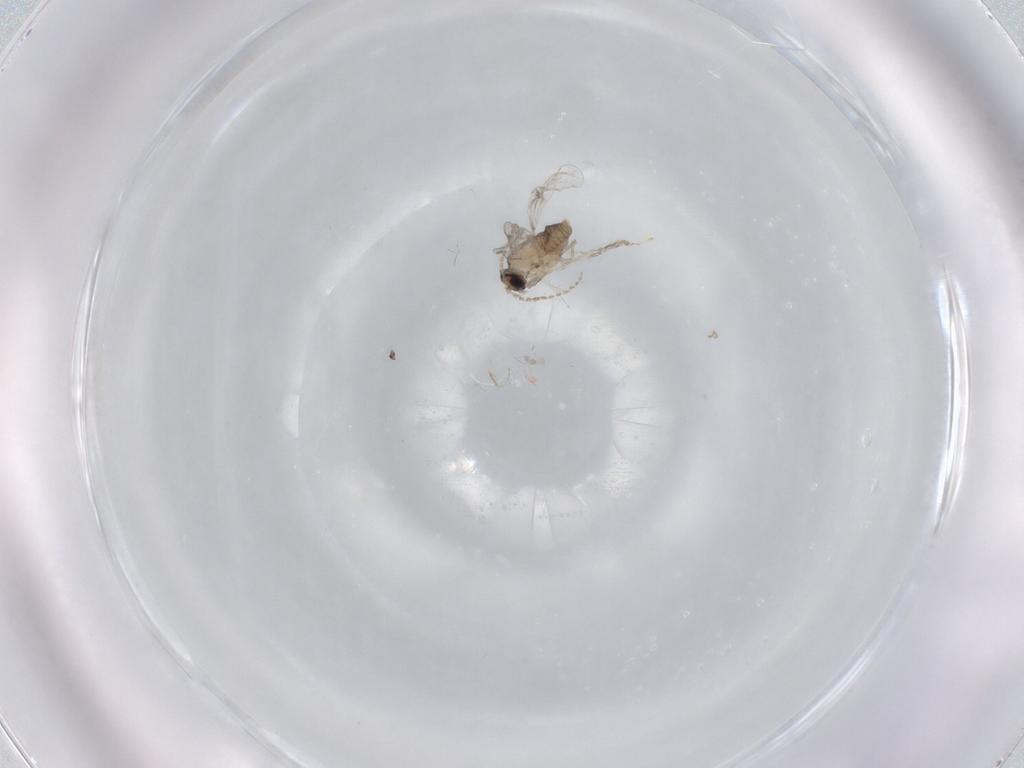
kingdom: Animalia
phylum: Arthropoda
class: Insecta
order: Diptera
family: Cecidomyiidae
